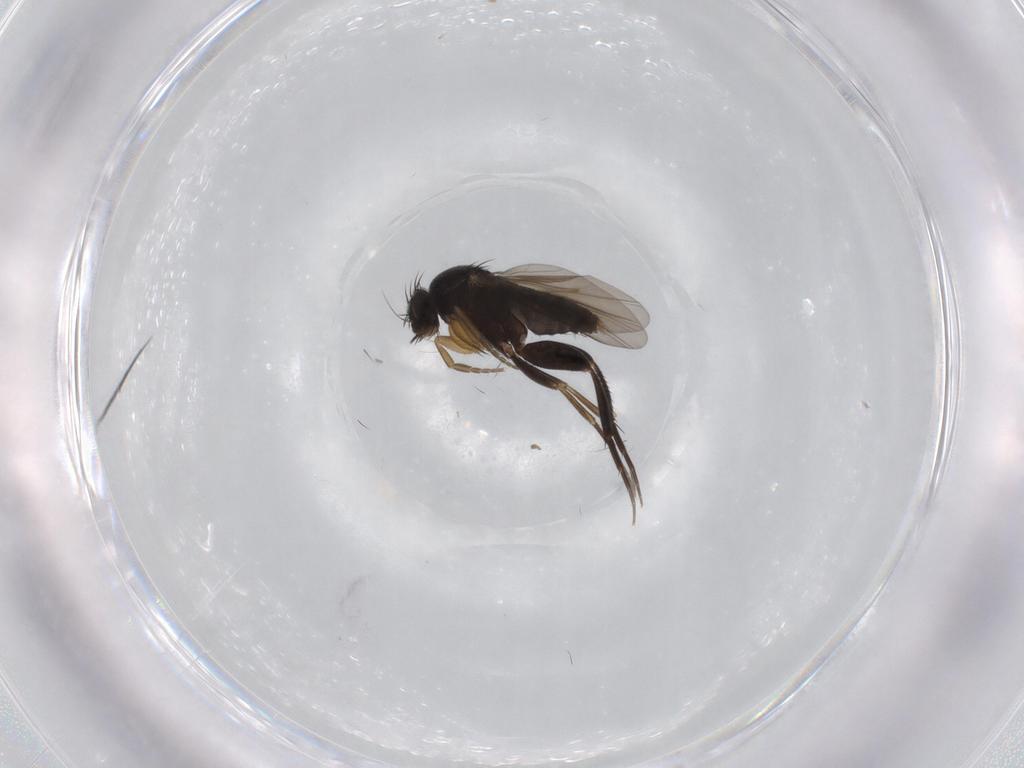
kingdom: Animalia
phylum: Arthropoda
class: Insecta
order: Diptera
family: Phoridae
